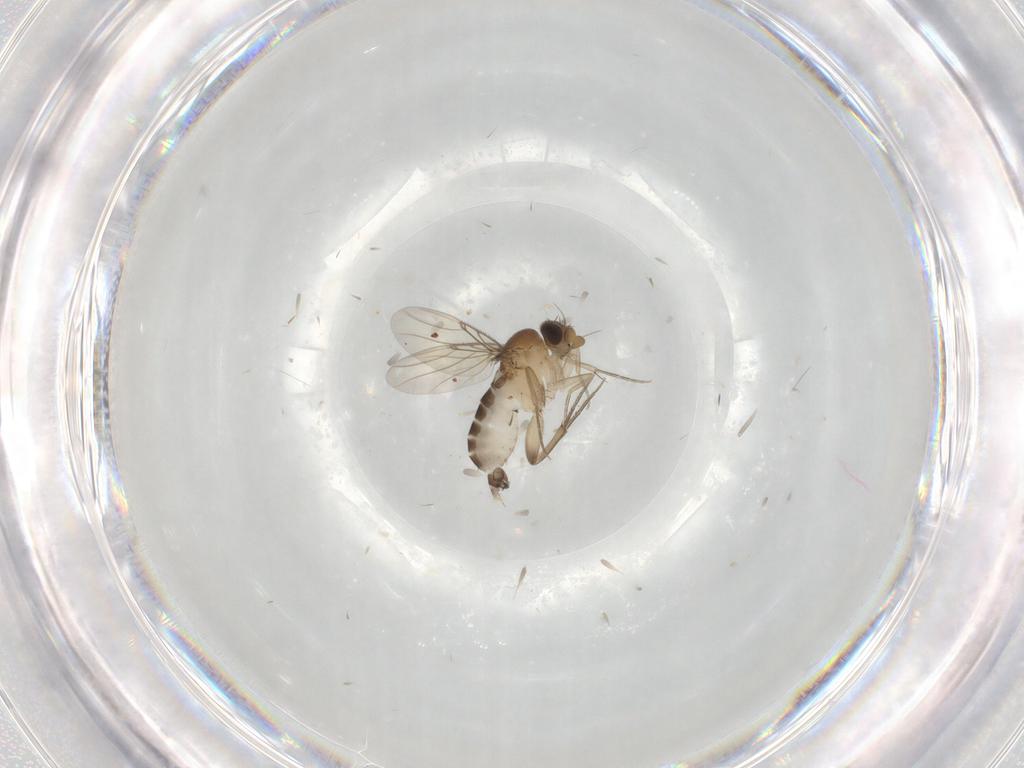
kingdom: Animalia
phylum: Arthropoda
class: Insecta
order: Diptera
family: Phoridae
